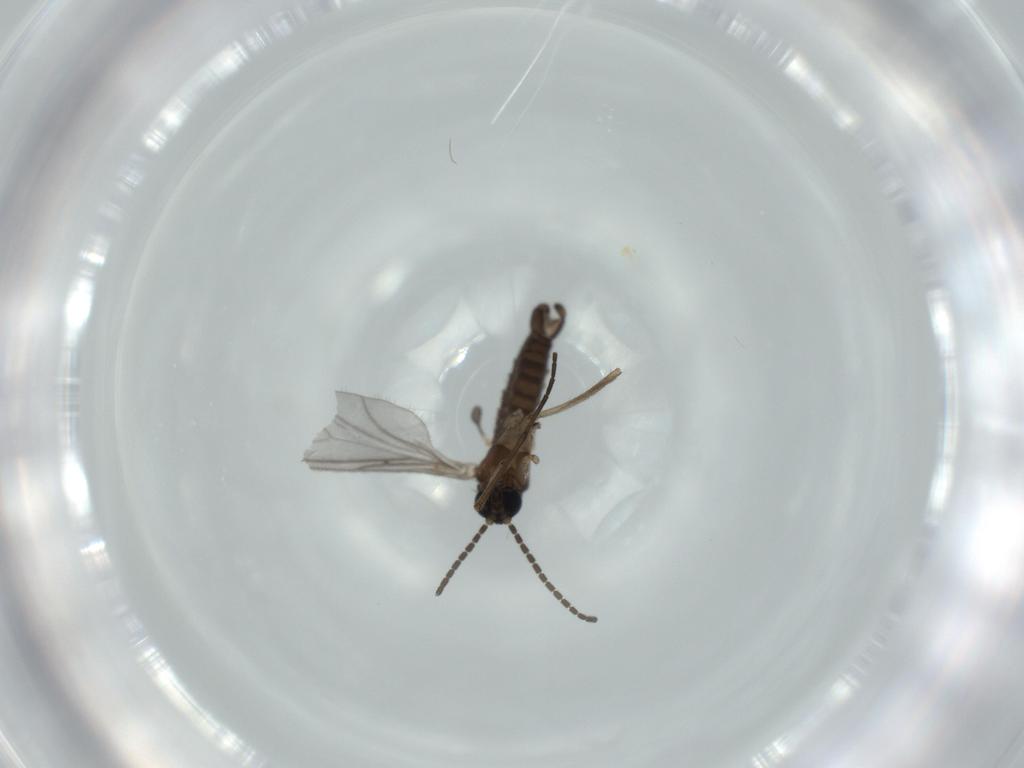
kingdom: Animalia
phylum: Arthropoda
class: Insecta
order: Diptera
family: Sciaridae
